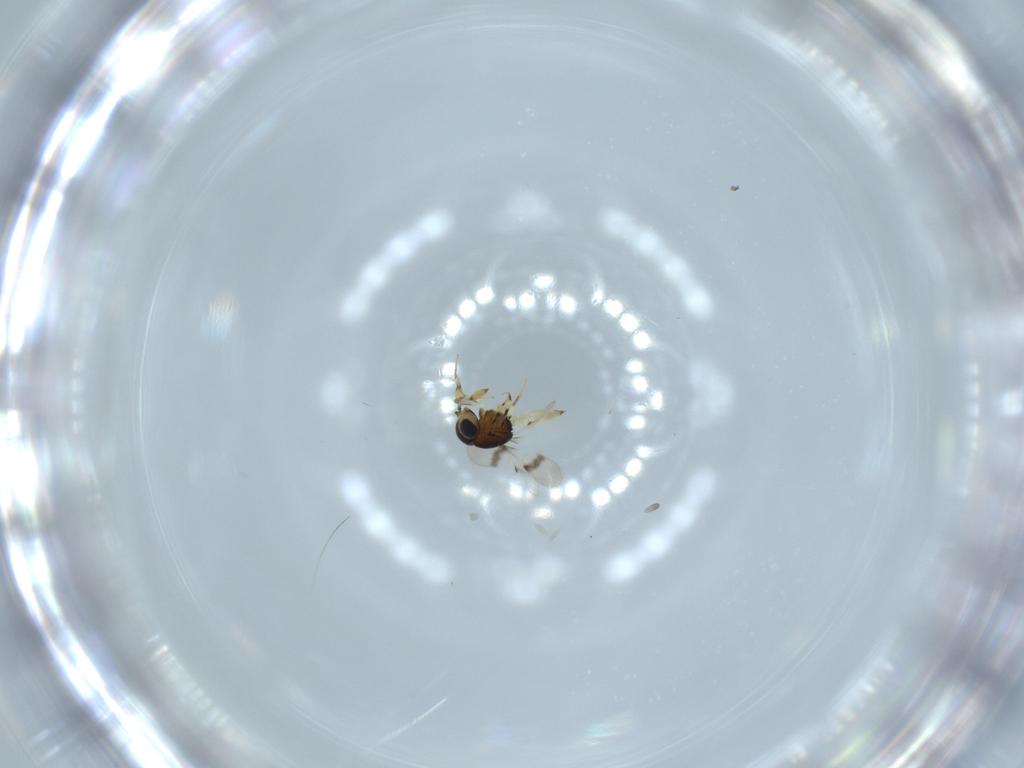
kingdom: Animalia
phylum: Arthropoda
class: Insecta
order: Hymenoptera
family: Scelionidae
